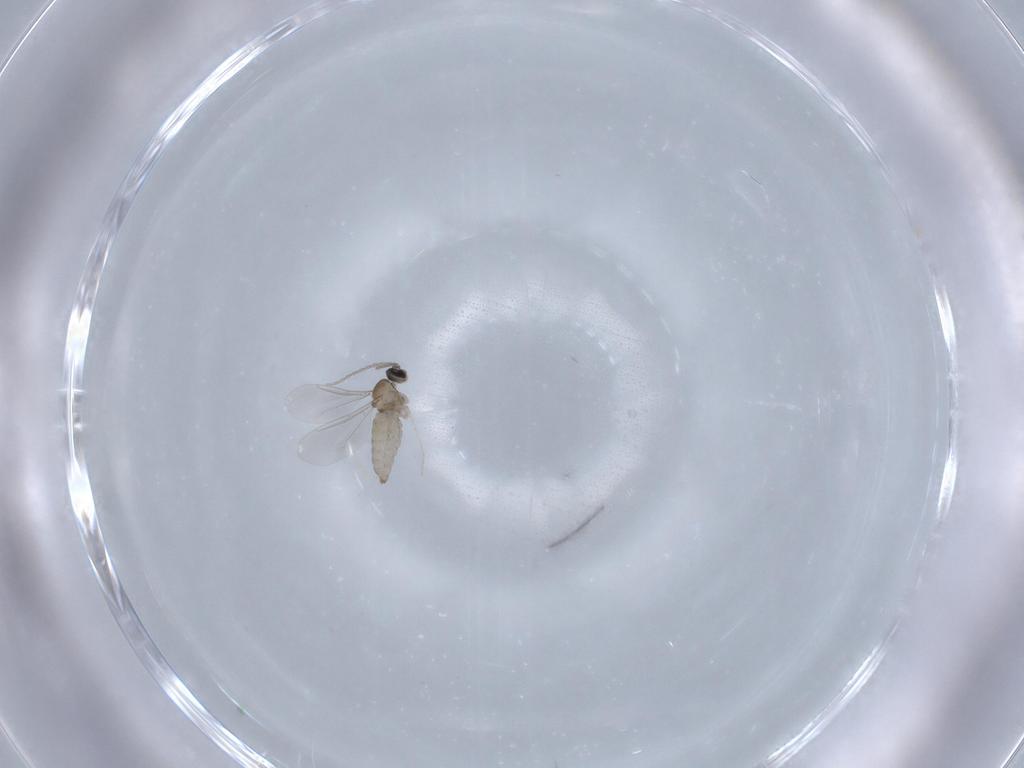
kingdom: Animalia
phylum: Arthropoda
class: Insecta
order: Diptera
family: Cecidomyiidae
